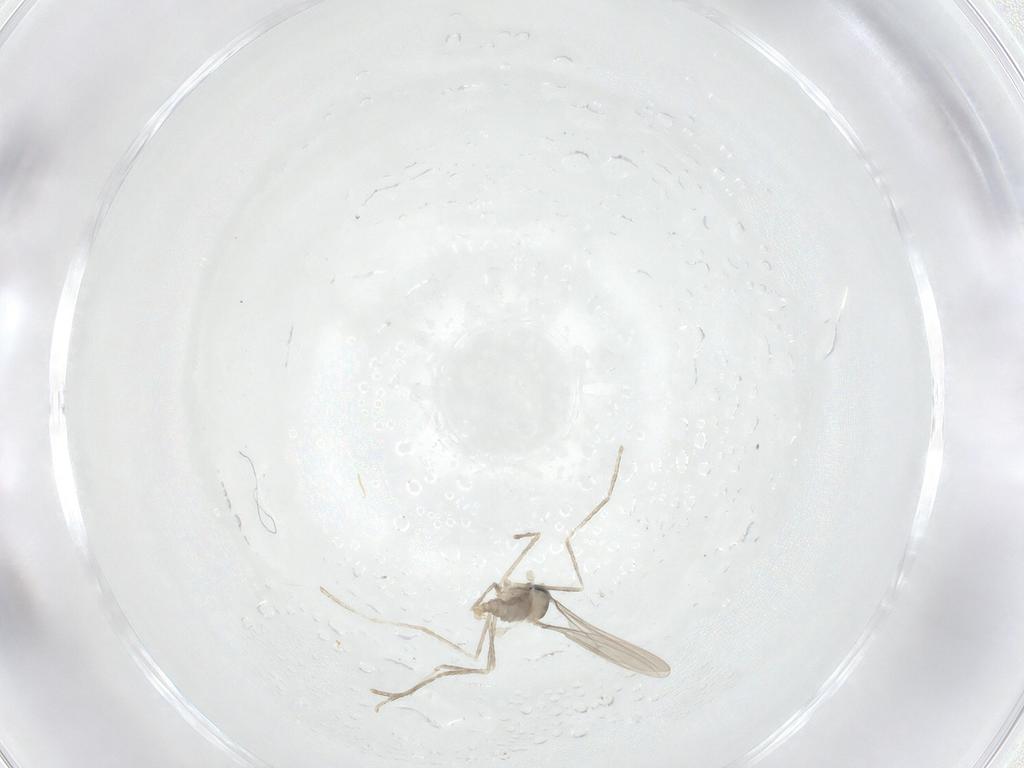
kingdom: Animalia
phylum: Arthropoda
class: Insecta
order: Diptera
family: Cecidomyiidae
